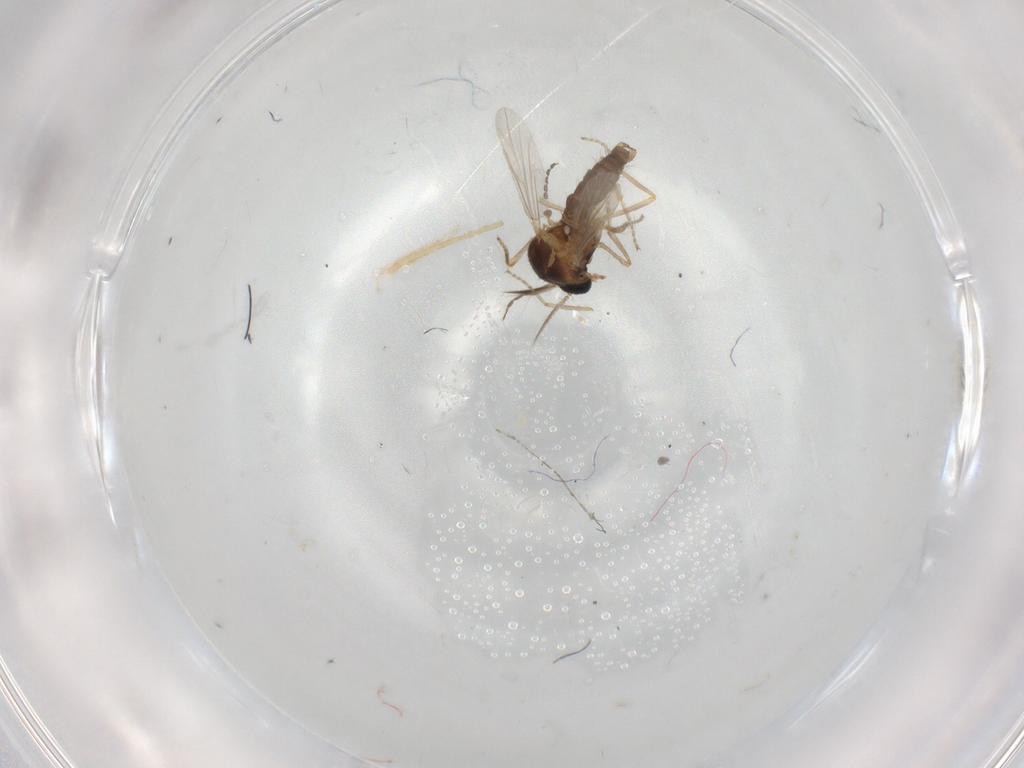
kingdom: Animalia
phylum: Arthropoda
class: Insecta
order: Diptera
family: Ceratopogonidae
